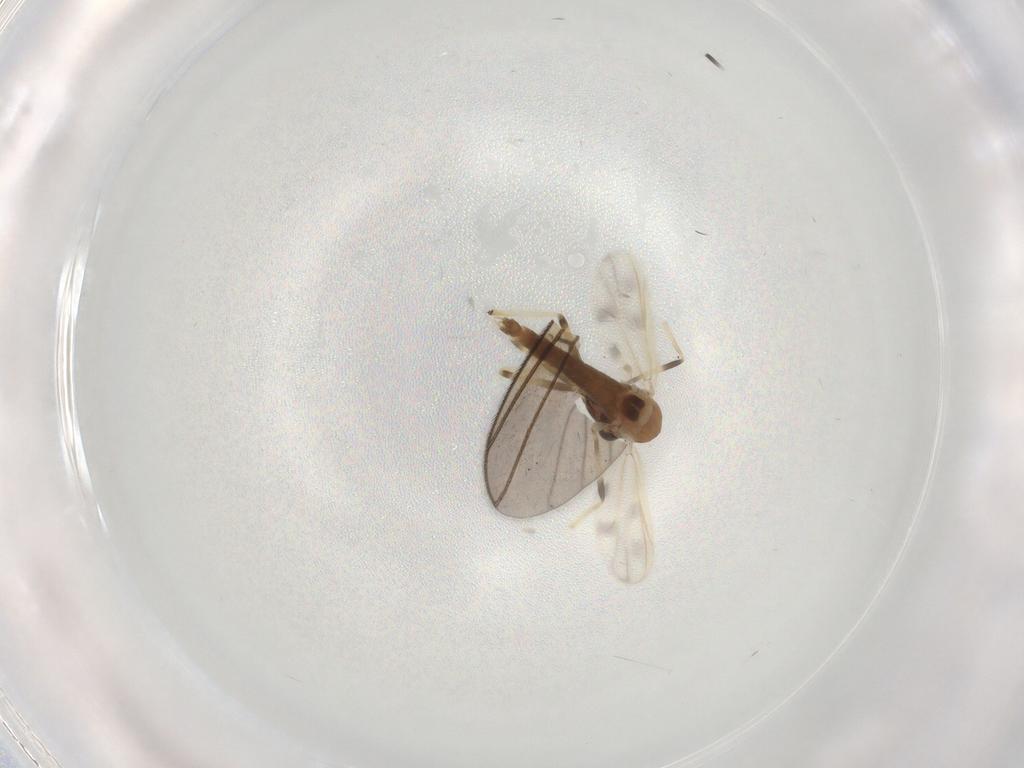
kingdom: Animalia
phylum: Arthropoda
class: Insecta
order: Diptera
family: Chironomidae
